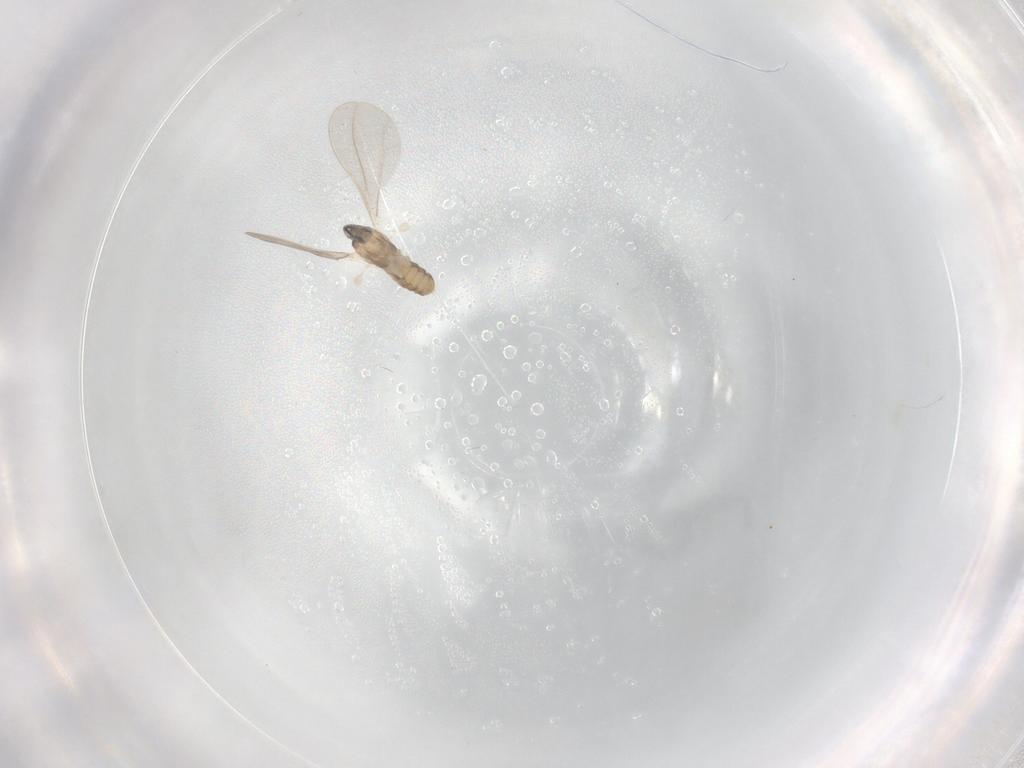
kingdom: Animalia
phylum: Arthropoda
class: Insecta
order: Diptera
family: Cecidomyiidae
